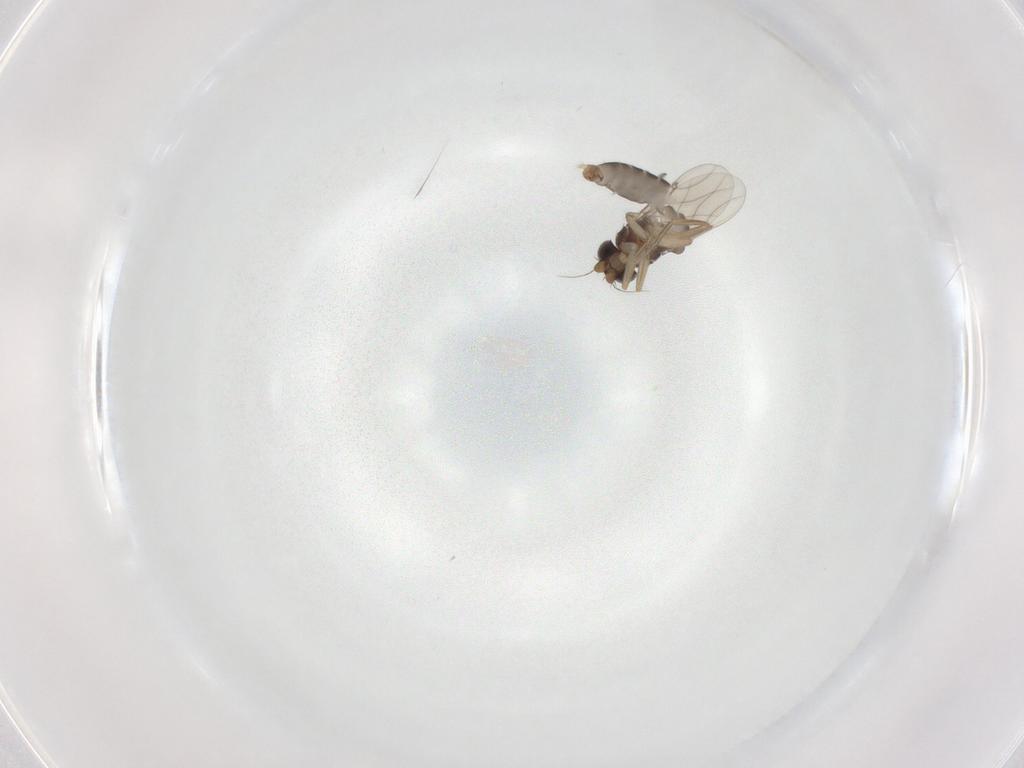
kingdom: Animalia
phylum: Arthropoda
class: Insecta
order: Diptera
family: Phoridae
